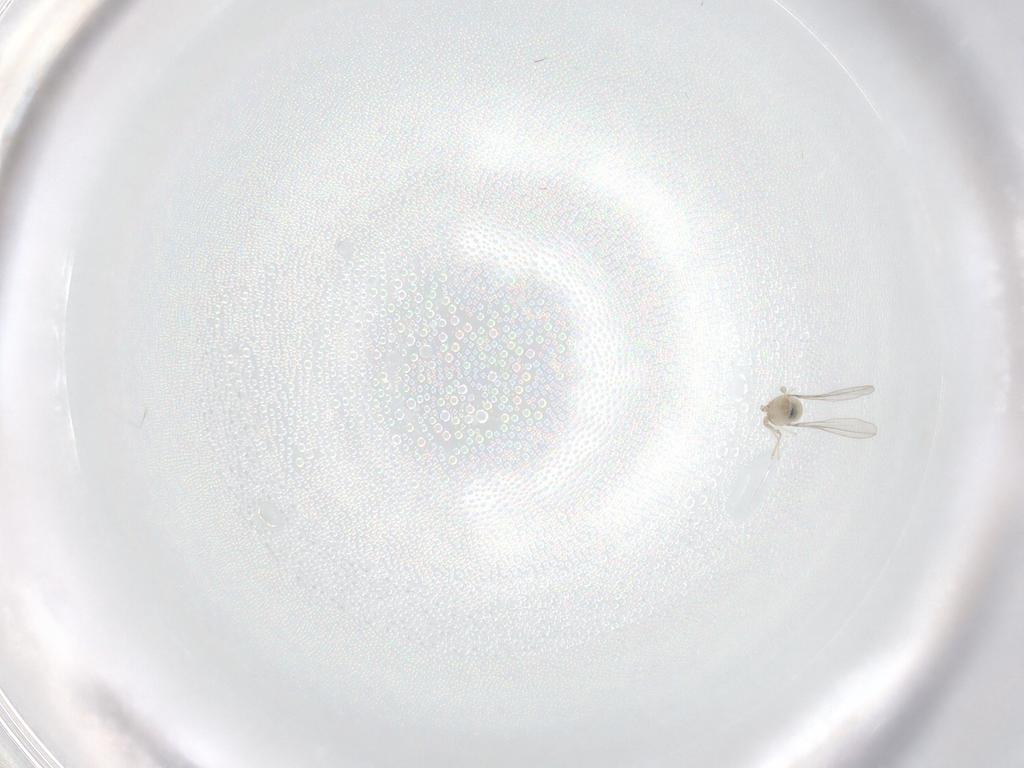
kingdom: Animalia
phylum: Arthropoda
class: Insecta
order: Diptera
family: Cecidomyiidae
